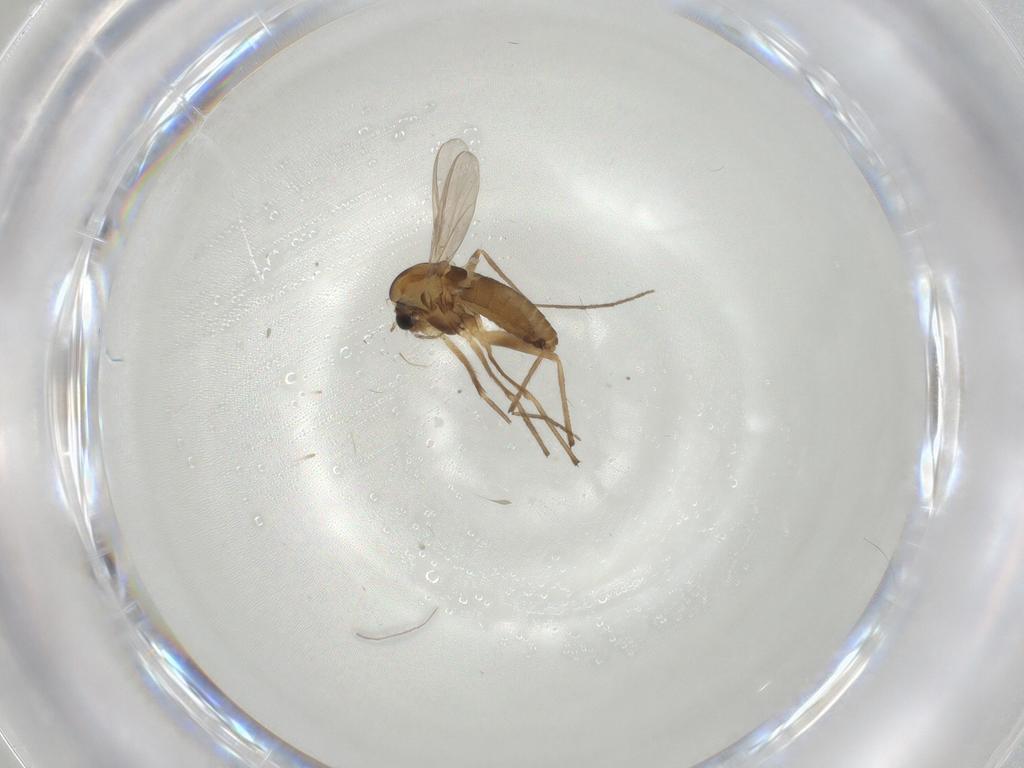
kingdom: Animalia
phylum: Arthropoda
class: Insecta
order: Diptera
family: Chironomidae
